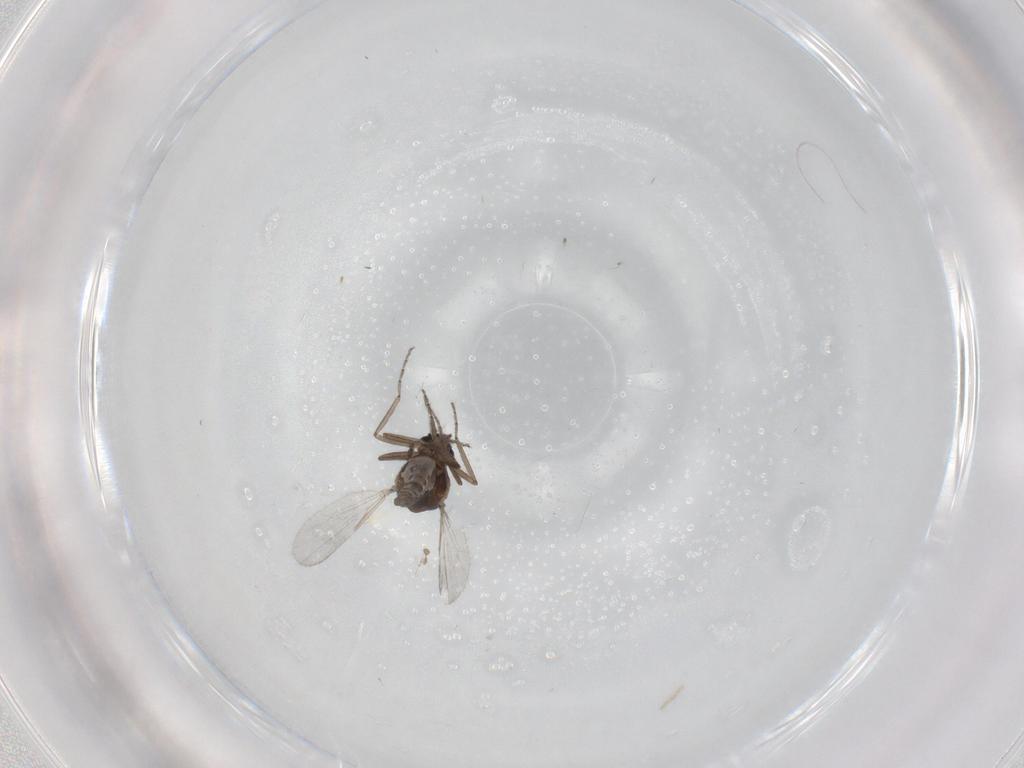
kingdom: Animalia
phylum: Arthropoda
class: Insecta
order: Diptera
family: Ceratopogonidae
